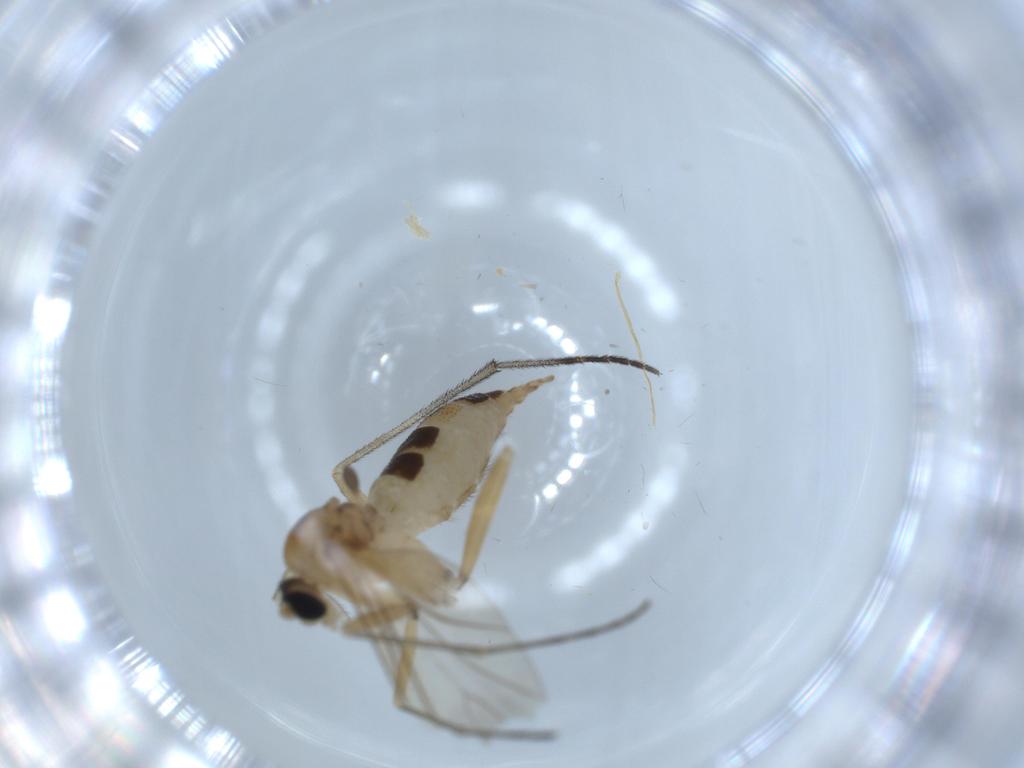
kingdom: Animalia
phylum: Arthropoda
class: Insecta
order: Diptera
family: Sciaridae
